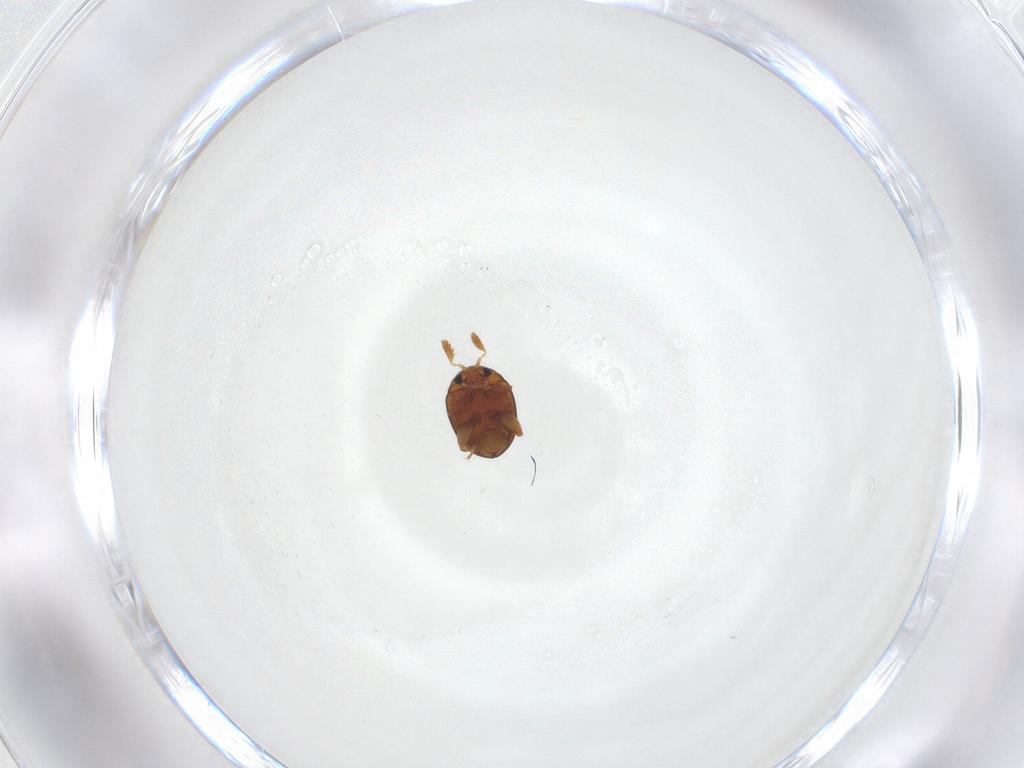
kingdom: Animalia
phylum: Arthropoda
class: Insecta
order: Coleoptera
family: Chrysomelidae
